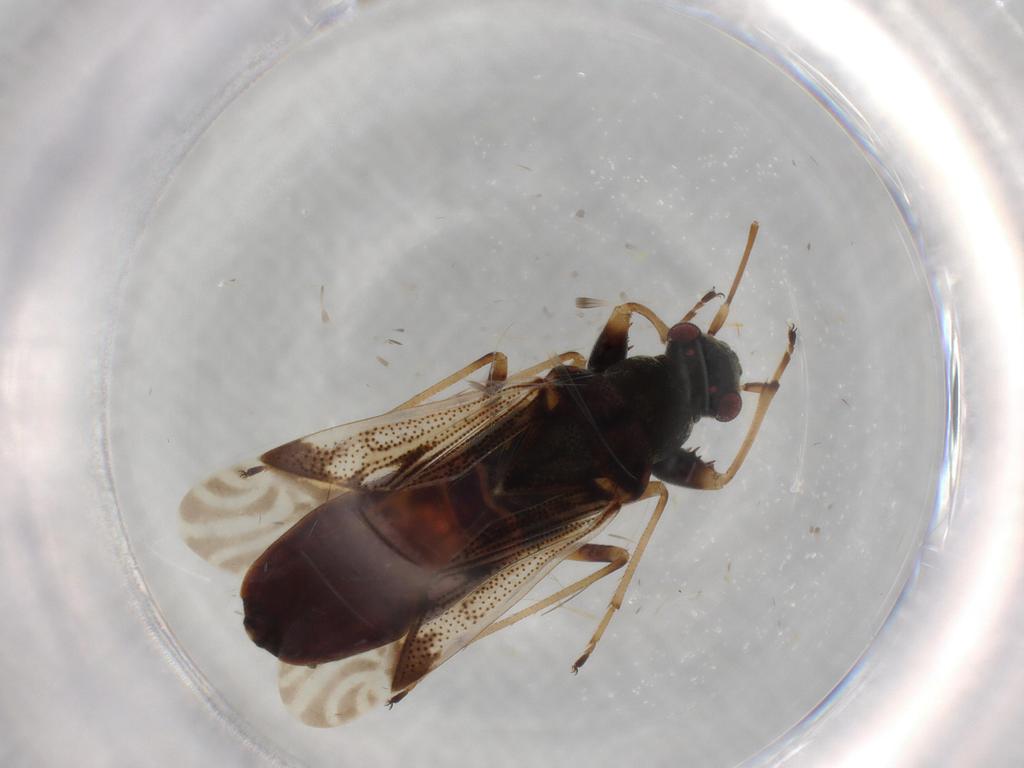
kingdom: Animalia
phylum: Arthropoda
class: Insecta
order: Hemiptera
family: Rhyparochromidae
